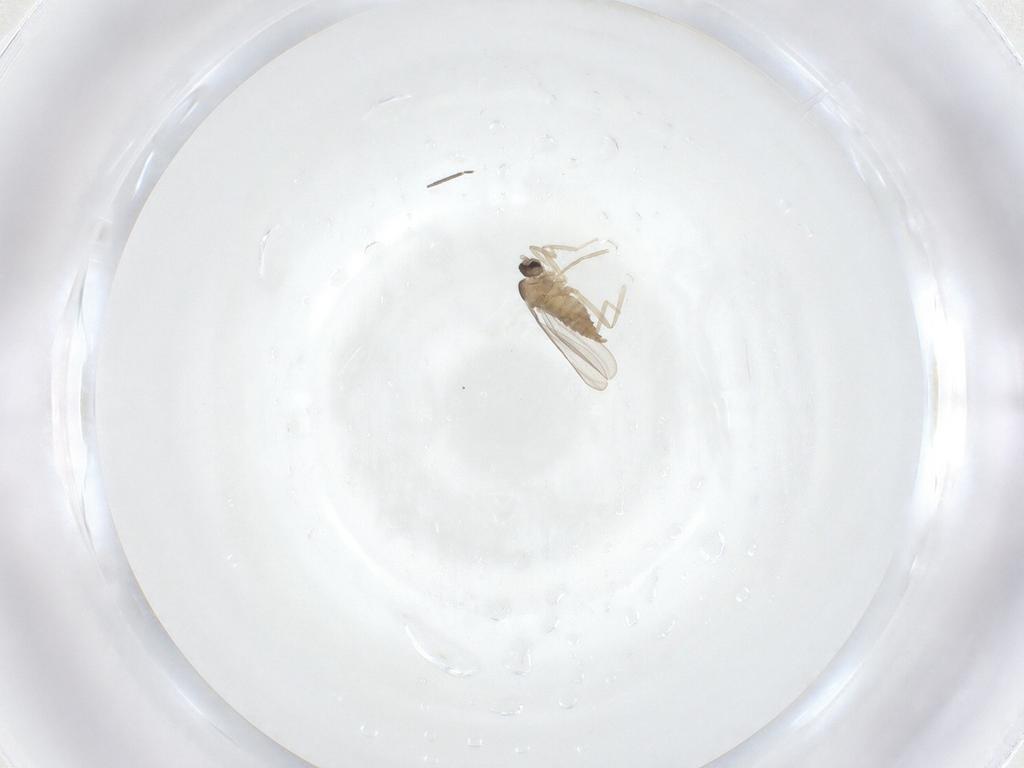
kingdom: Animalia
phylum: Arthropoda
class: Insecta
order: Diptera
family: Cecidomyiidae
